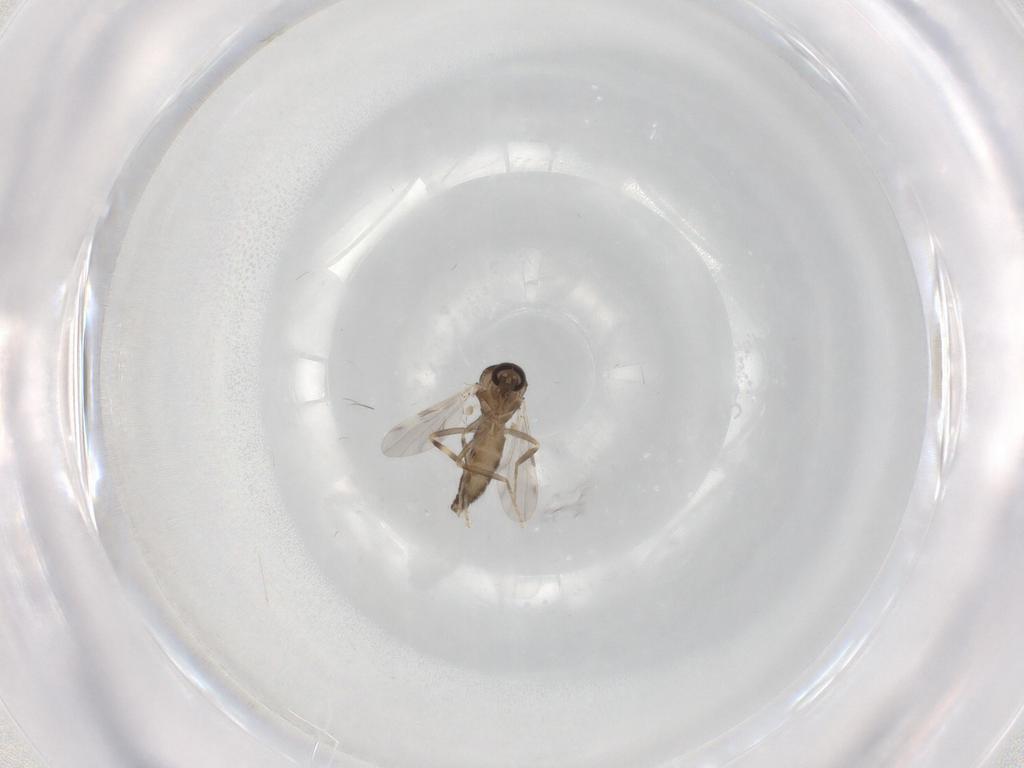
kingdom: Animalia
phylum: Arthropoda
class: Insecta
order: Diptera
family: Ceratopogonidae
